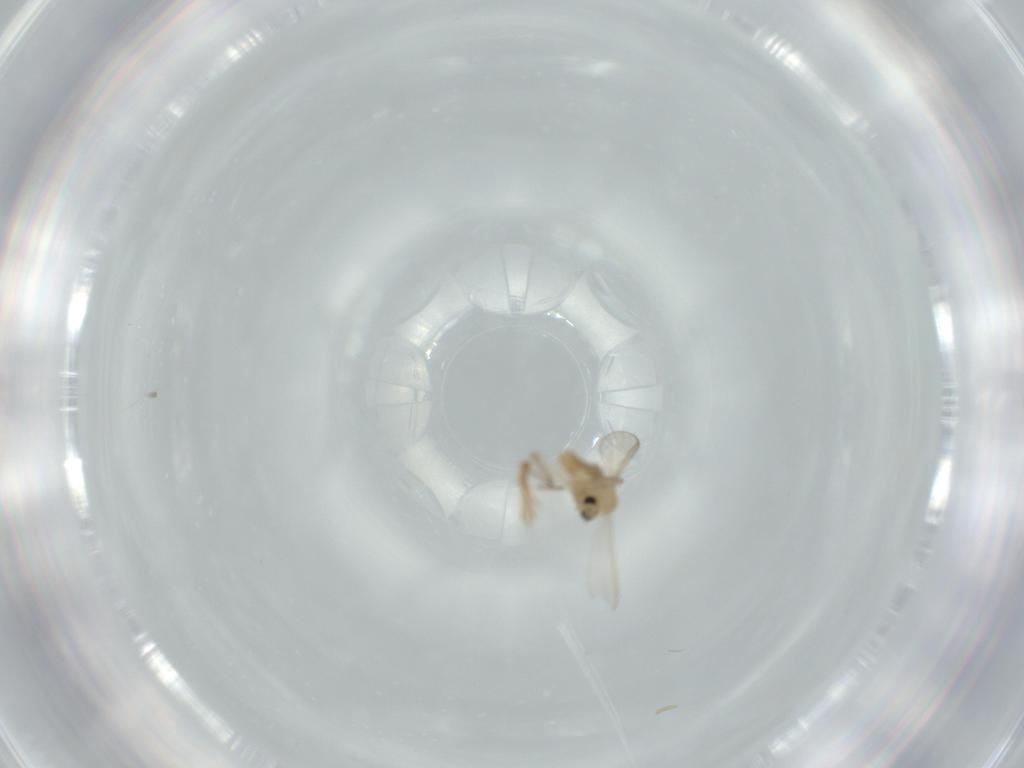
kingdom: Animalia
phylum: Arthropoda
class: Insecta
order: Diptera
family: Chironomidae
